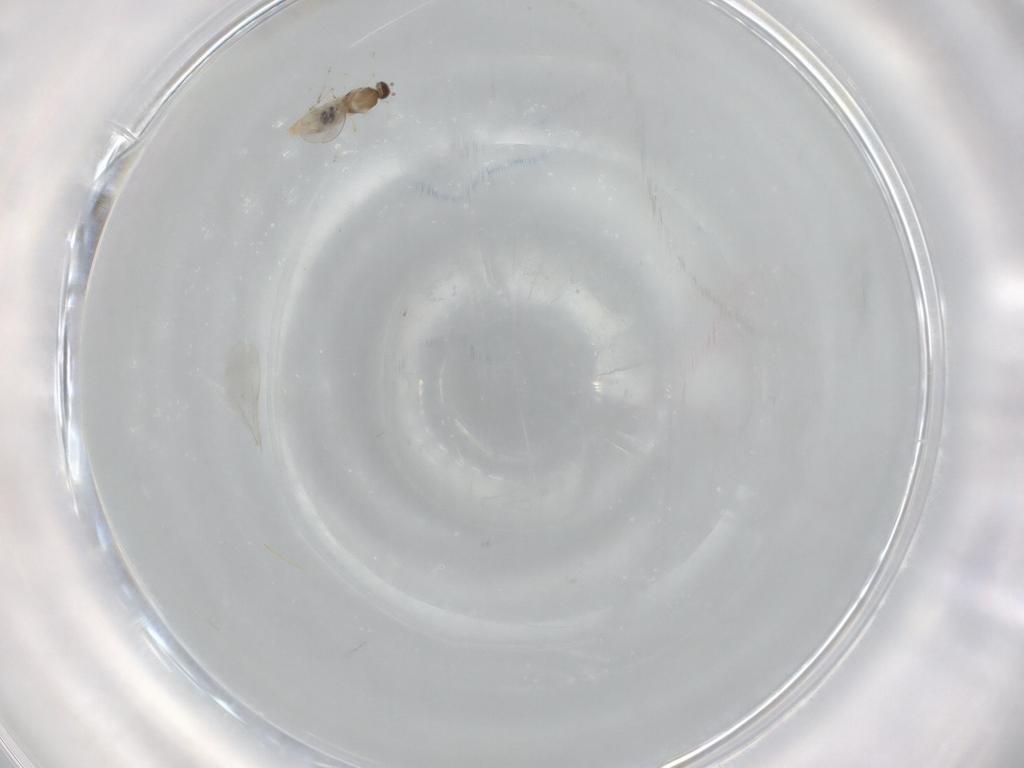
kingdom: Animalia
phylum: Arthropoda
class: Insecta
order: Diptera
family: Cecidomyiidae
